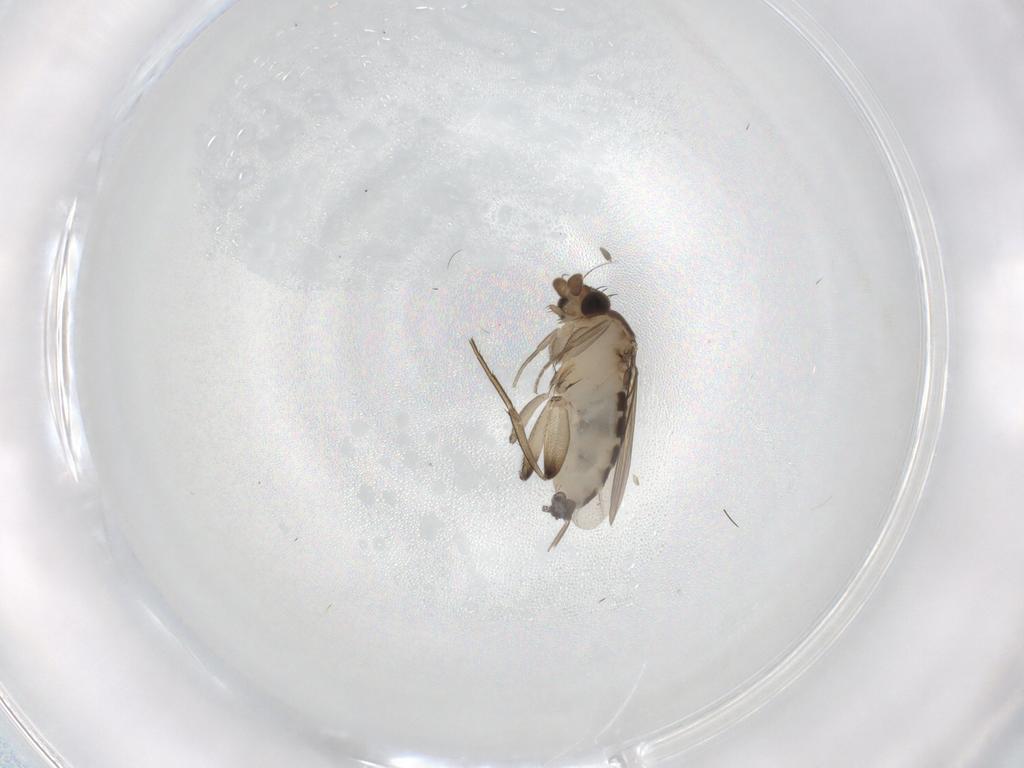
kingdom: Animalia
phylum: Arthropoda
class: Insecta
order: Diptera
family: Phoridae
